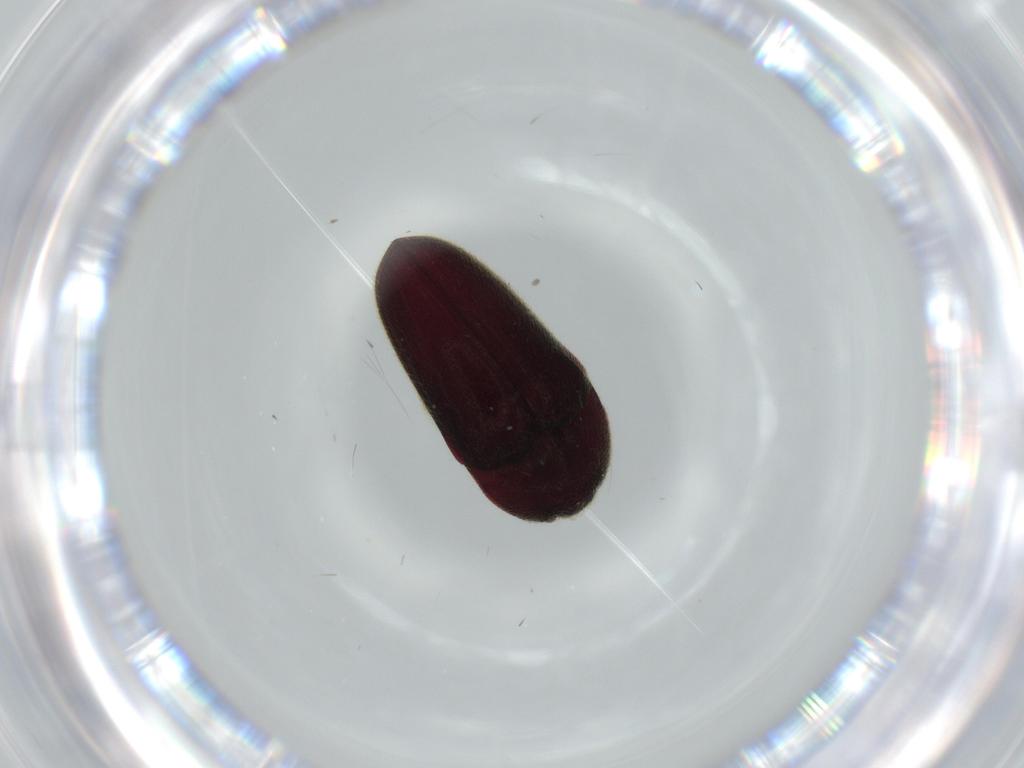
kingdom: Animalia
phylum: Arthropoda
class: Insecta
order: Coleoptera
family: Throscidae
